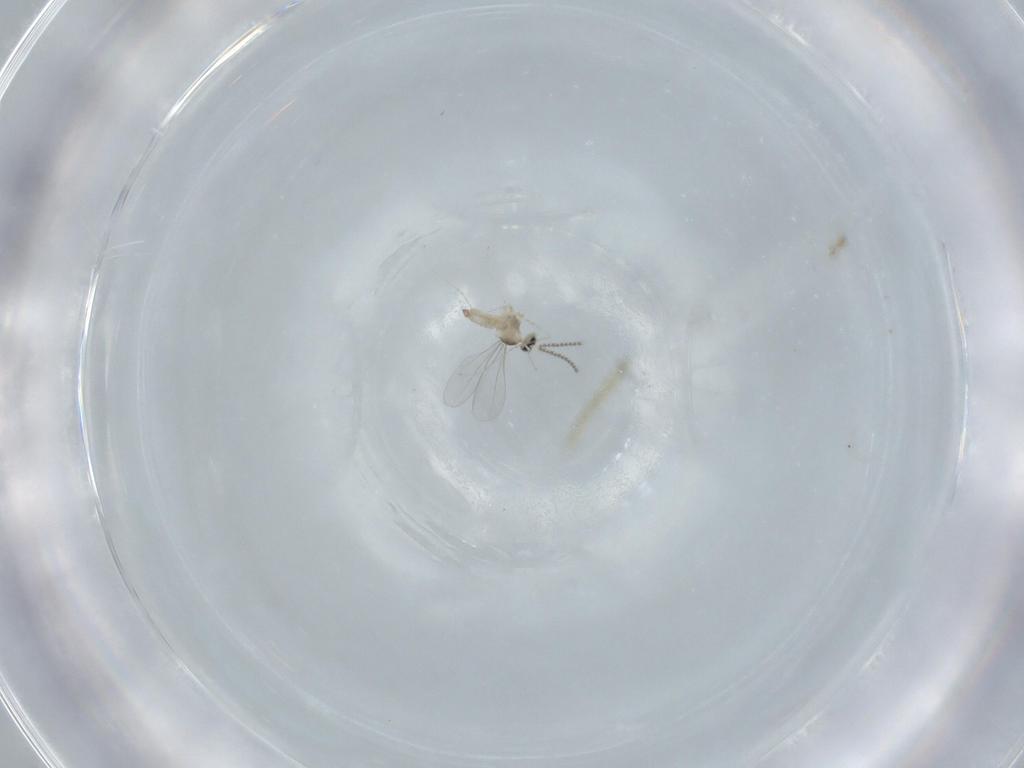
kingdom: Animalia
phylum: Arthropoda
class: Insecta
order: Diptera
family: Cecidomyiidae
